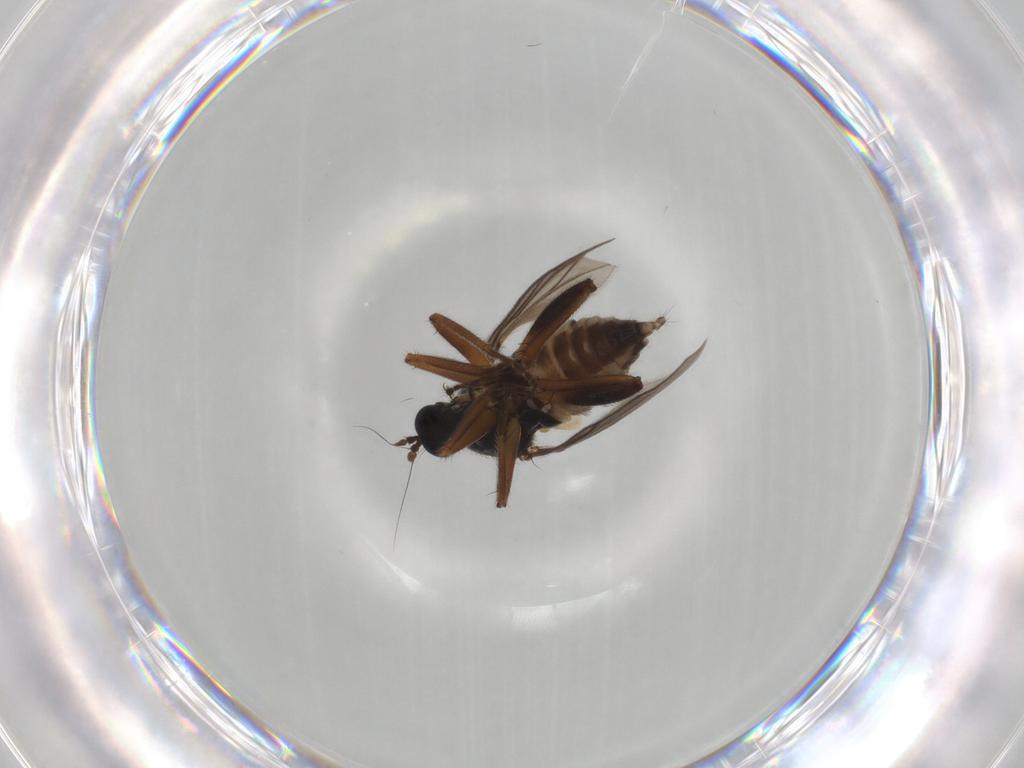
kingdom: Animalia
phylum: Arthropoda
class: Insecta
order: Diptera
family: Hybotidae
